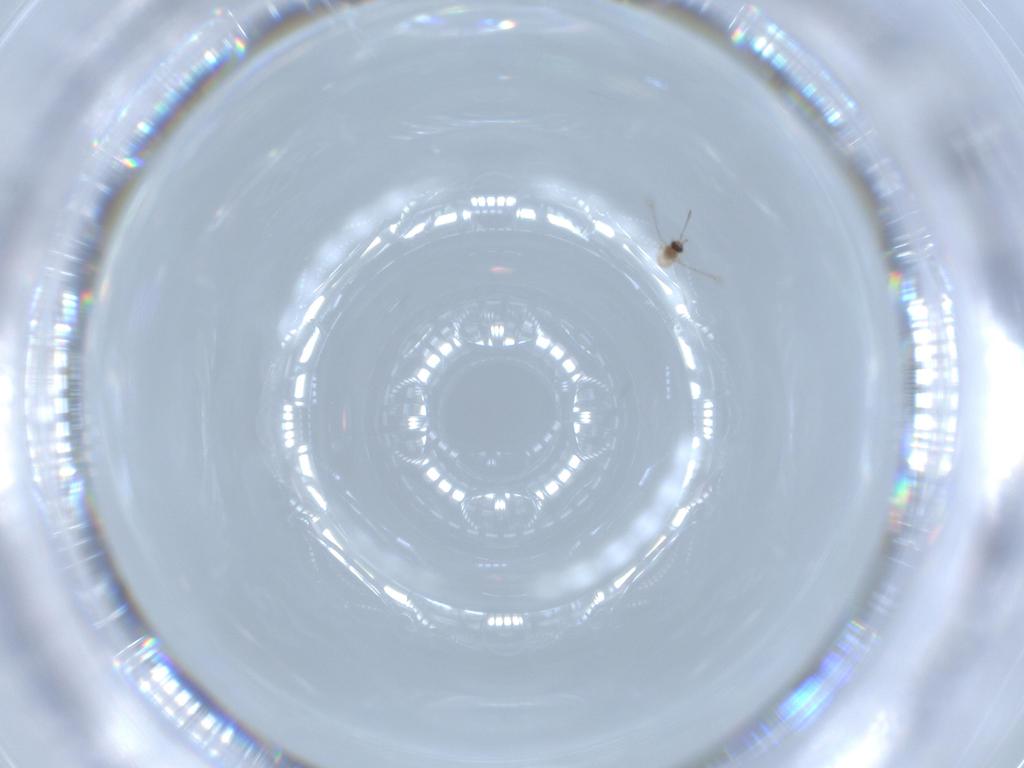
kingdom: Animalia
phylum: Arthropoda
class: Insecta
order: Hymenoptera
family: Mymaridae
